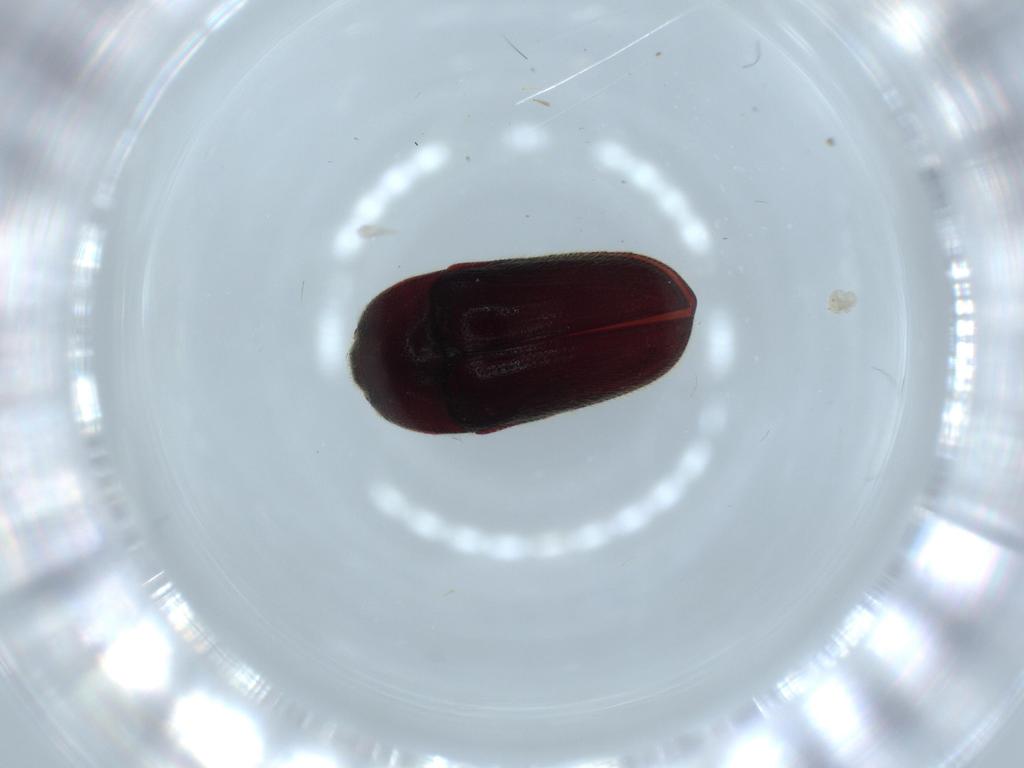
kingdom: Animalia
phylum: Arthropoda
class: Insecta
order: Coleoptera
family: Throscidae
